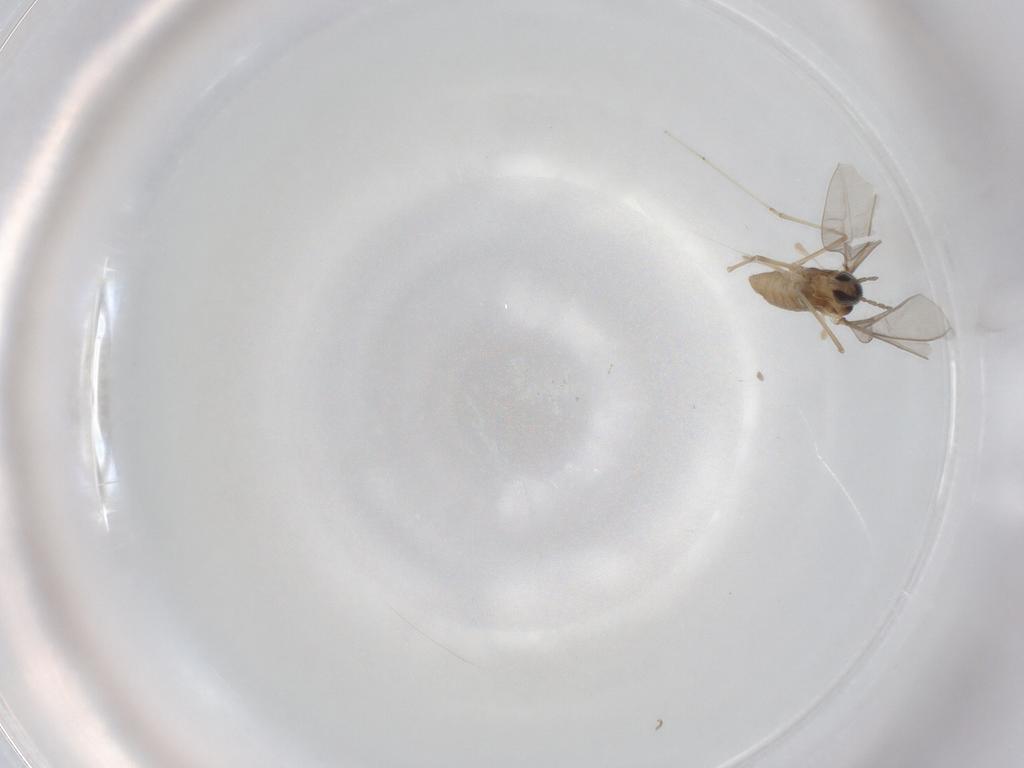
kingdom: Animalia
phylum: Arthropoda
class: Insecta
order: Diptera
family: Cecidomyiidae
